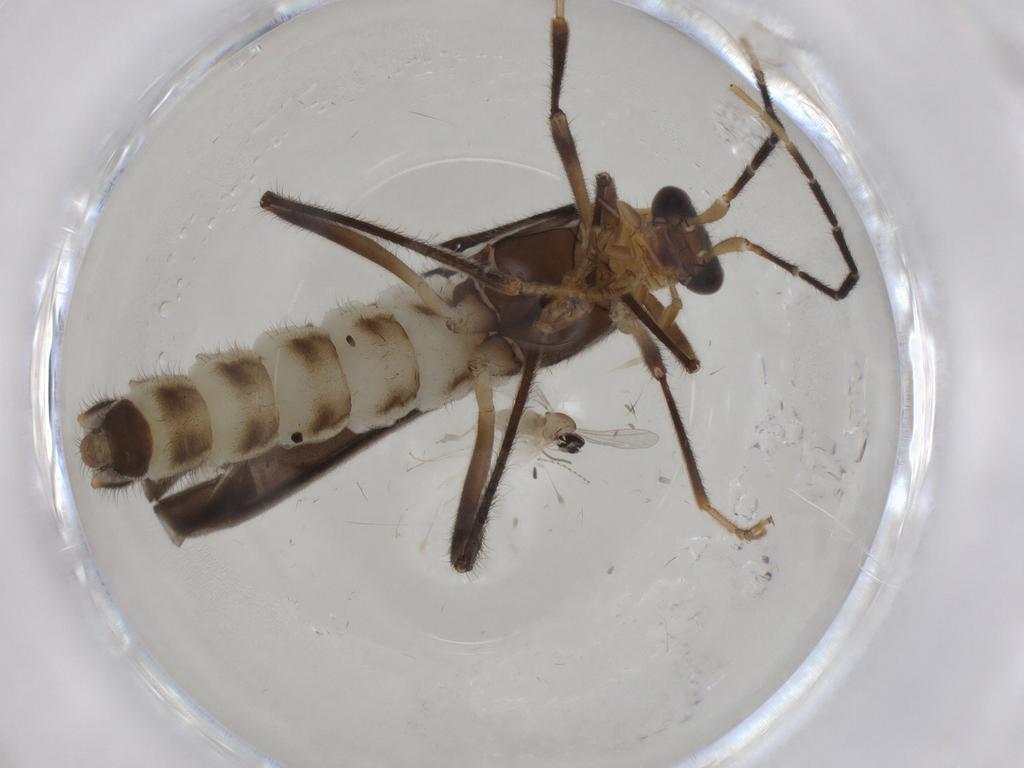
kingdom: Animalia
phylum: Arthropoda
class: Insecta
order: Diptera
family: Cecidomyiidae
